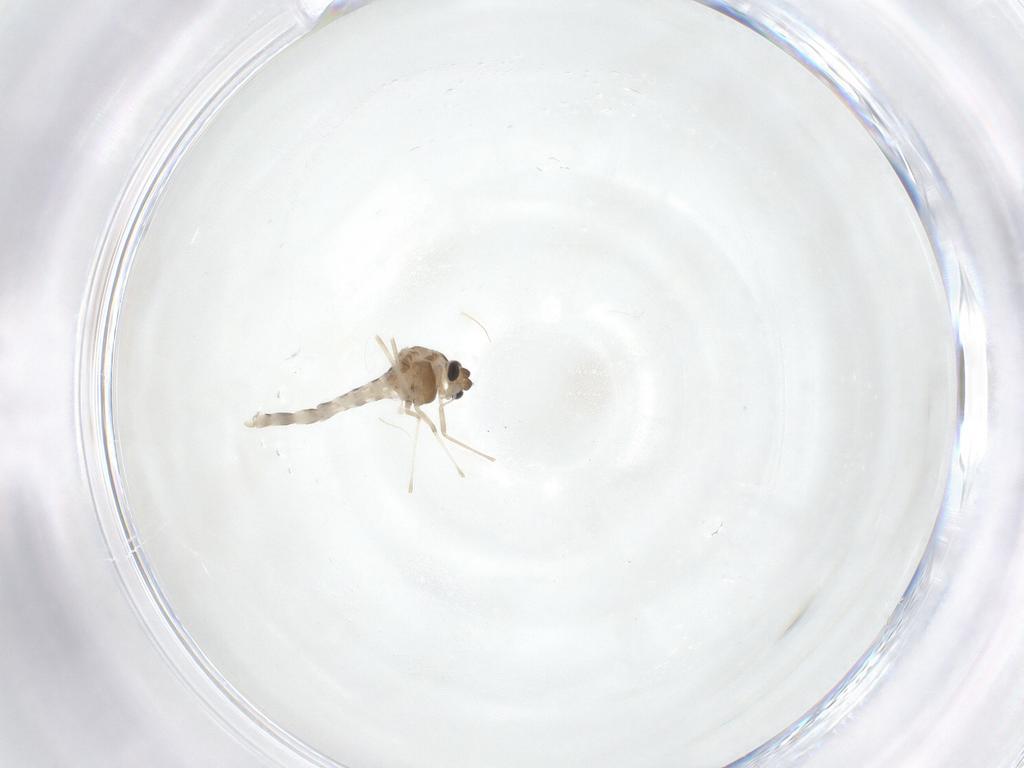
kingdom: Animalia
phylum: Arthropoda
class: Insecta
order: Diptera
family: Chironomidae
